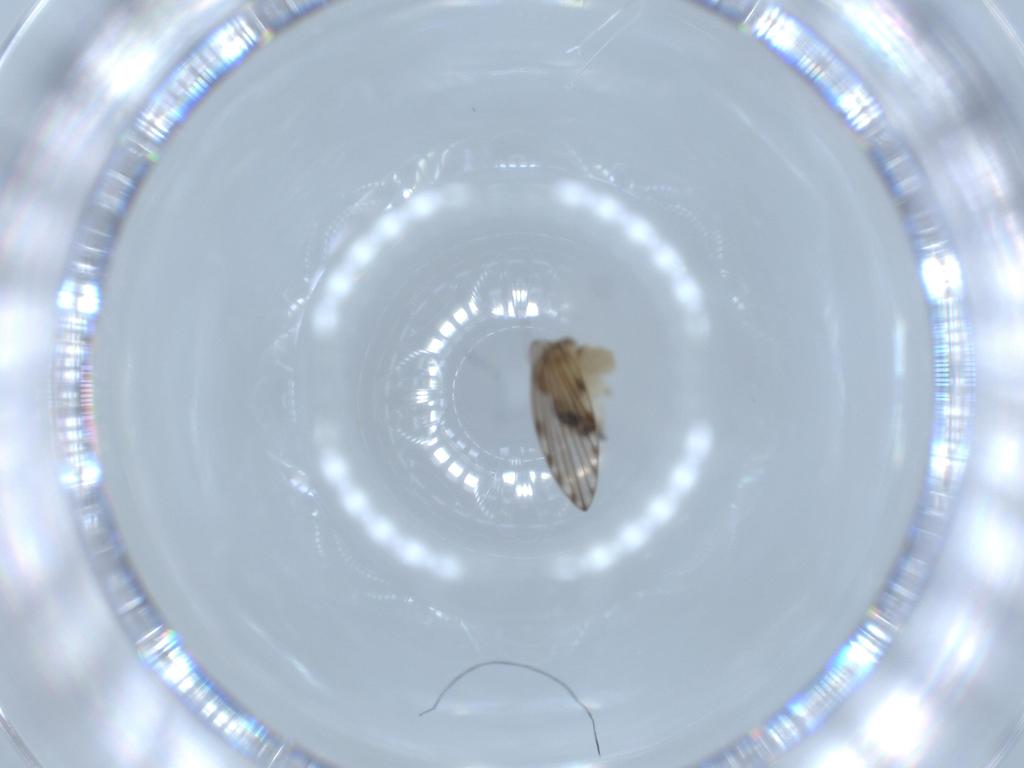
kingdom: Animalia
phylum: Arthropoda
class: Insecta
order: Diptera
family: Psychodidae
